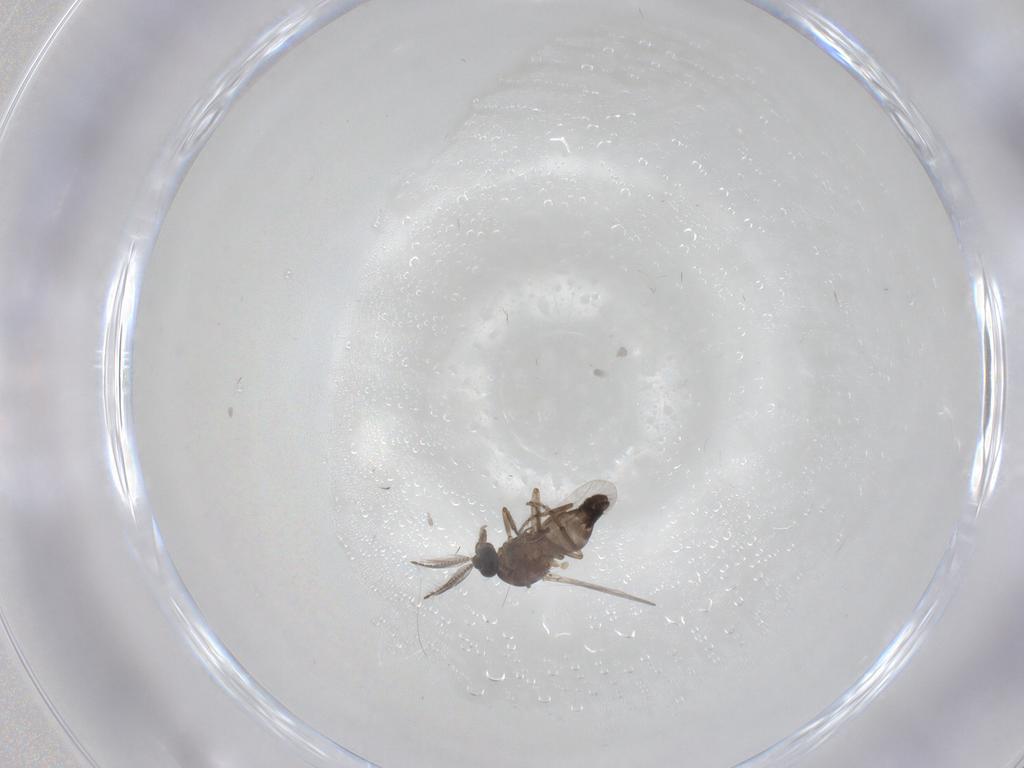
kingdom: Animalia
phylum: Arthropoda
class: Insecta
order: Diptera
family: Ceratopogonidae
